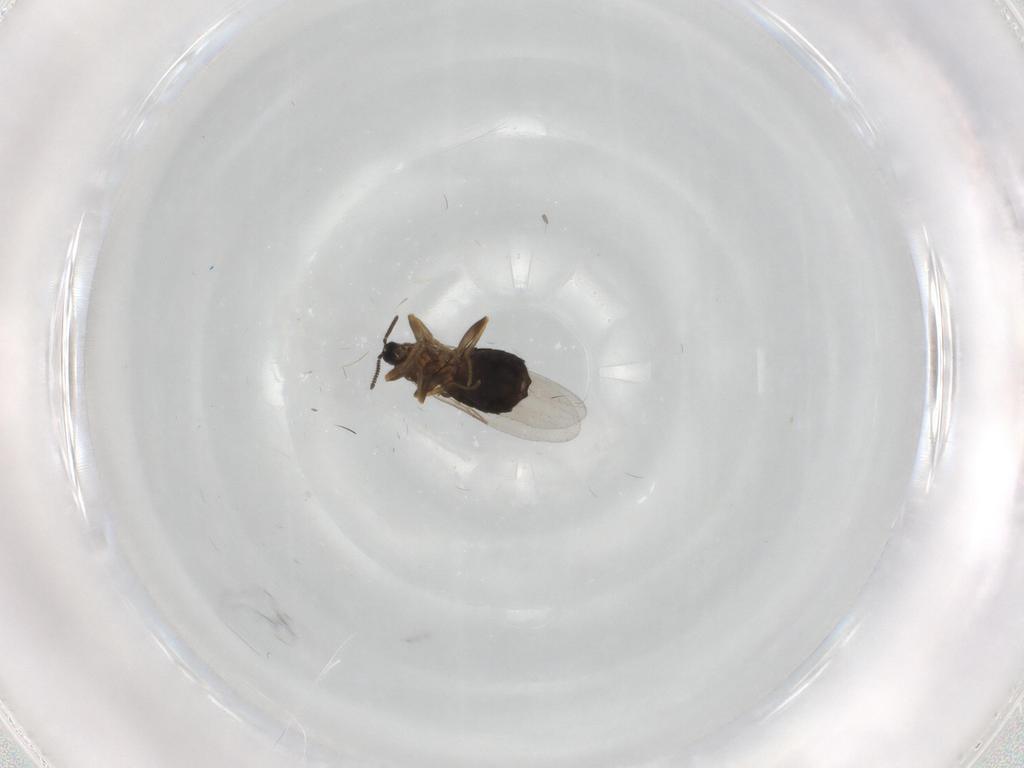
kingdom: Animalia
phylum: Arthropoda
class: Insecta
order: Diptera
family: Scatopsidae
